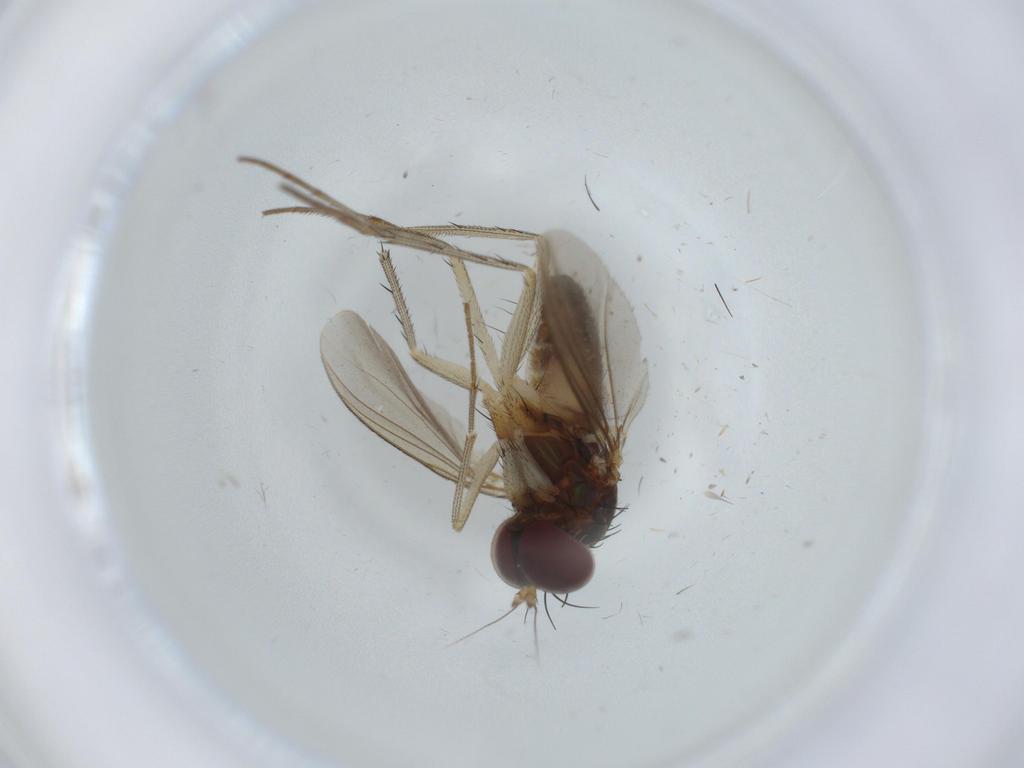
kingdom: Animalia
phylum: Arthropoda
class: Insecta
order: Diptera
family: Dolichopodidae
